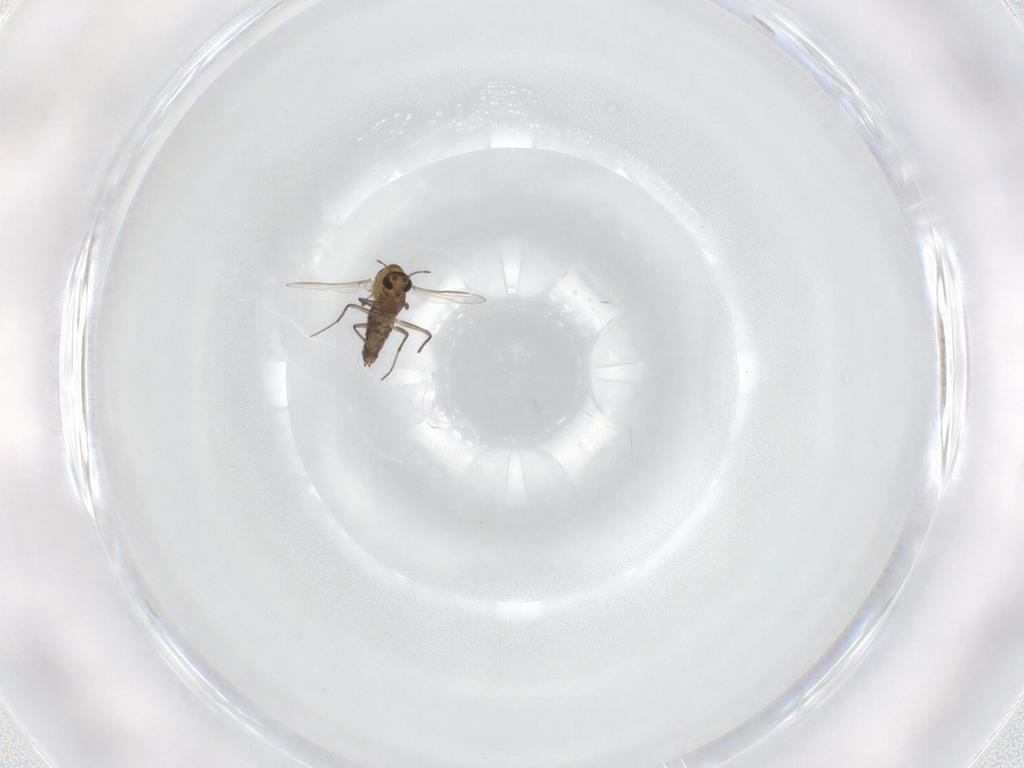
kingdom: Animalia
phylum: Arthropoda
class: Insecta
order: Diptera
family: Chironomidae
